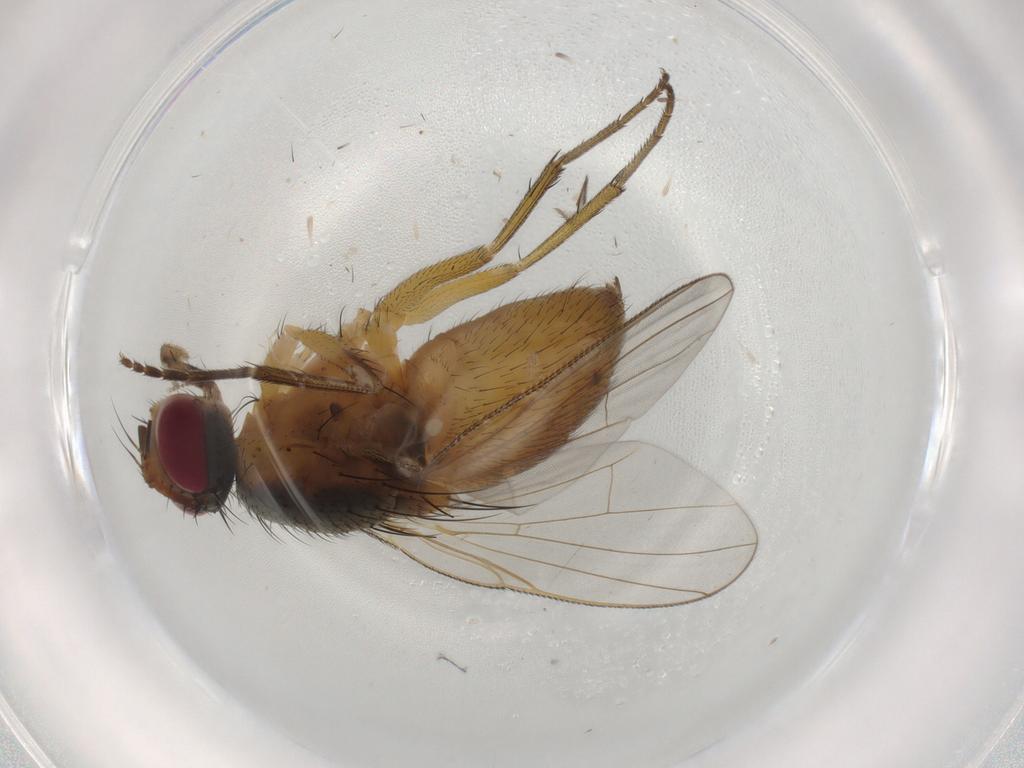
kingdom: Animalia
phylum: Arthropoda
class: Insecta
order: Diptera
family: Muscidae
